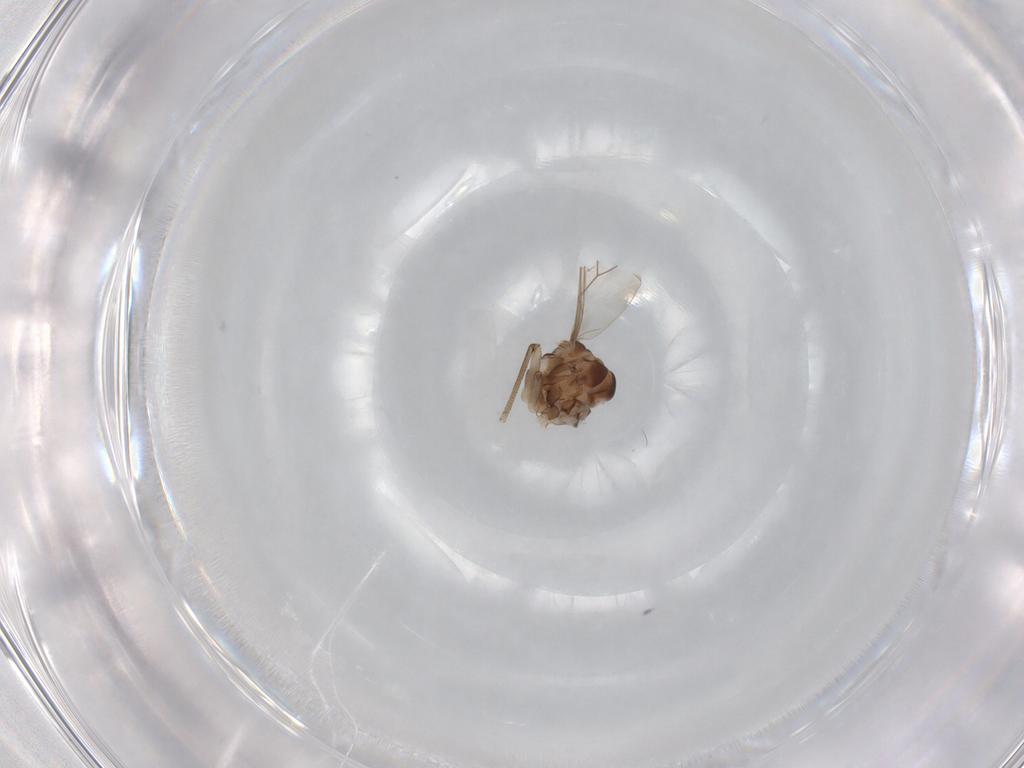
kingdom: Animalia
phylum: Arthropoda
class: Insecta
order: Psocodea
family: Peripsocidae
